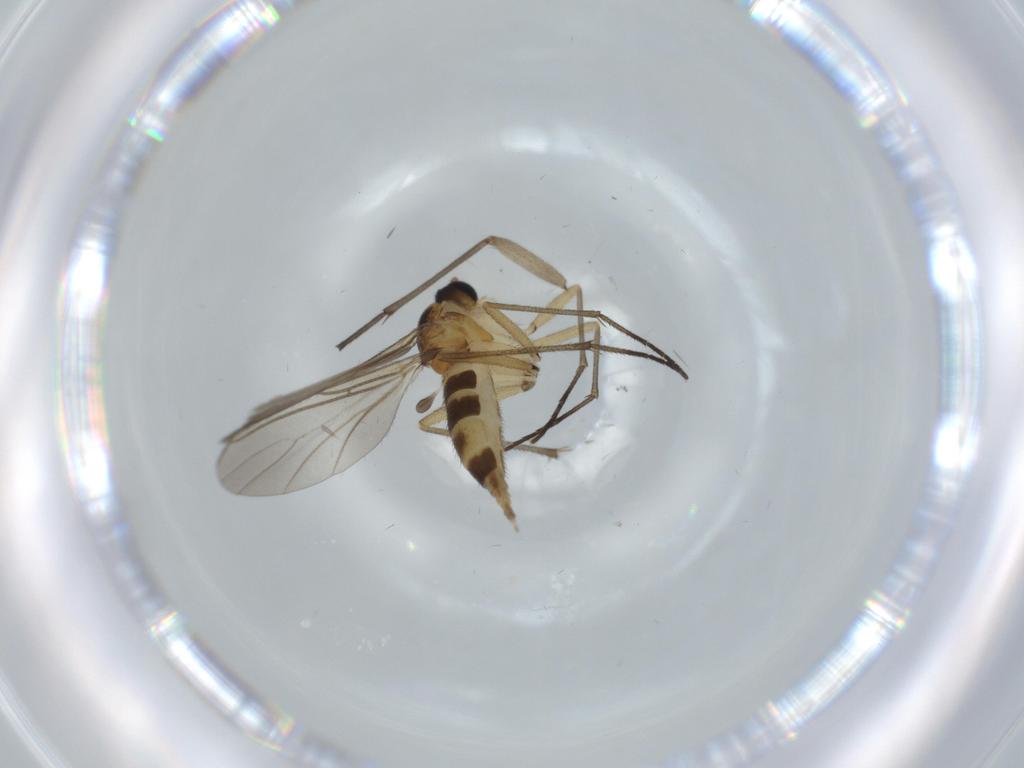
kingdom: Animalia
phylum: Arthropoda
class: Insecta
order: Diptera
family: Sciaridae
